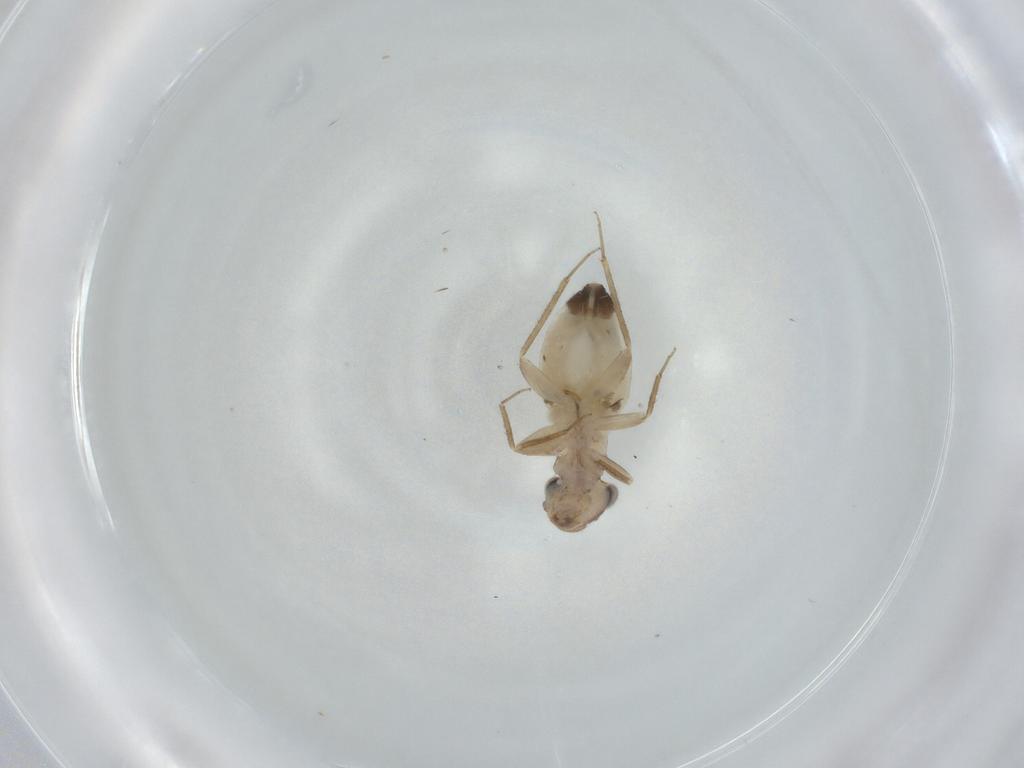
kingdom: Animalia
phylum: Arthropoda
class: Insecta
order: Psocodea
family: Lepidopsocidae
